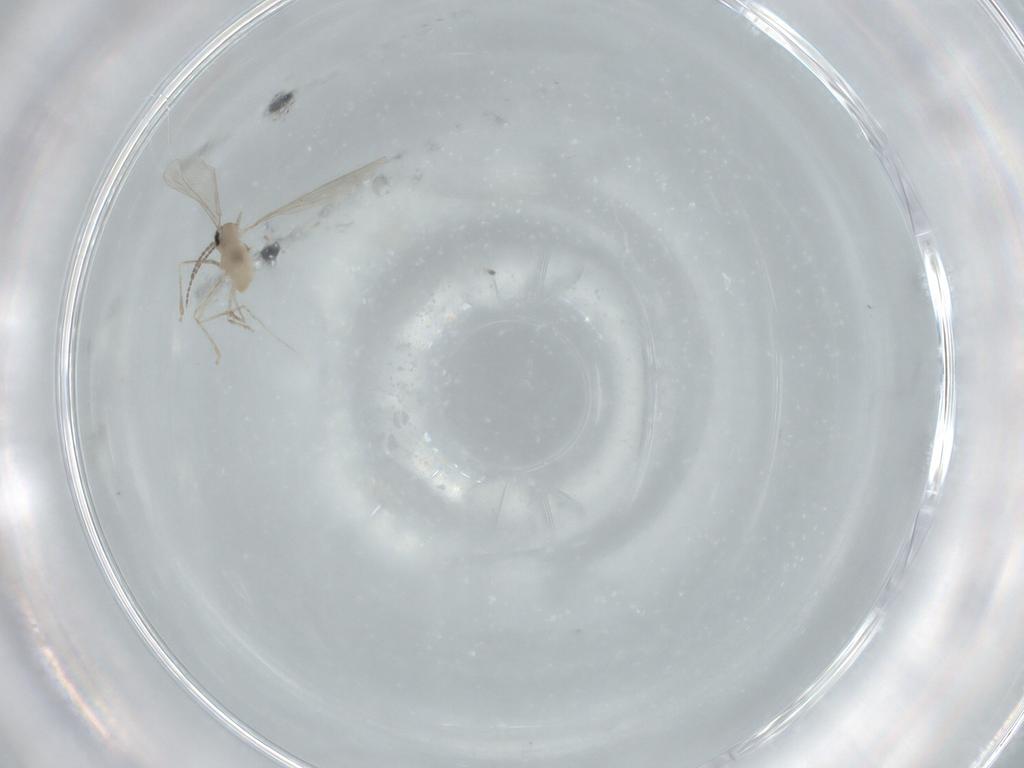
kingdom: Animalia
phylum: Arthropoda
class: Insecta
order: Diptera
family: Cecidomyiidae
